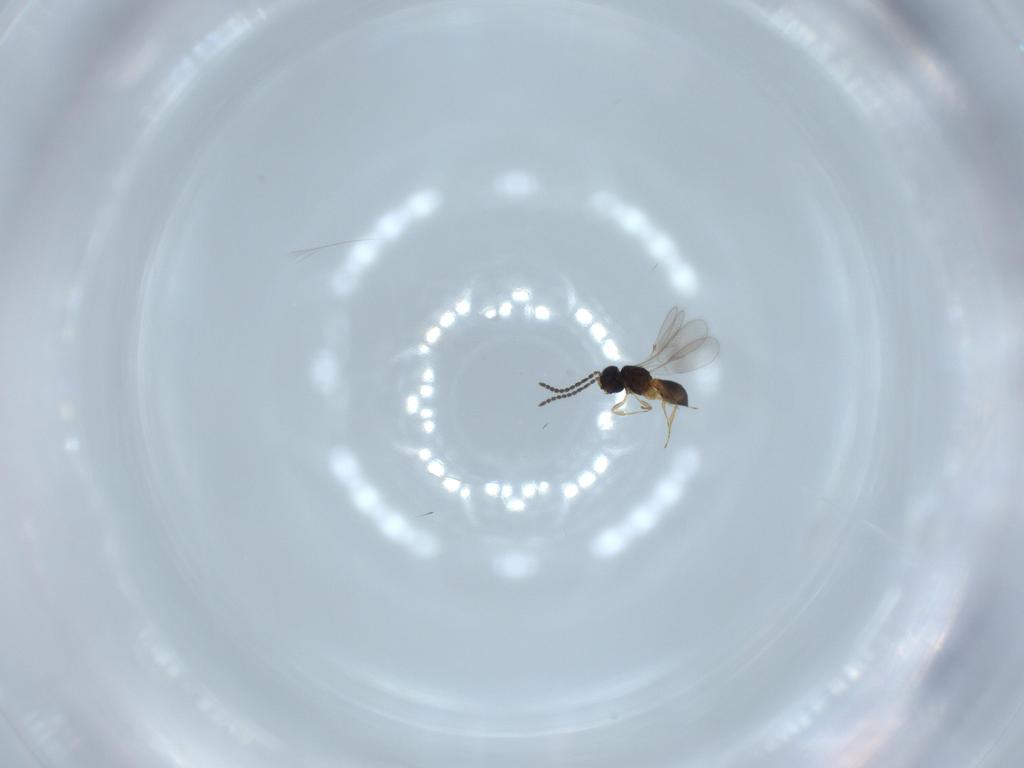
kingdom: Animalia
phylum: Arthropoda
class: Insecta
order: Hymenoptera
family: Scelionidae
